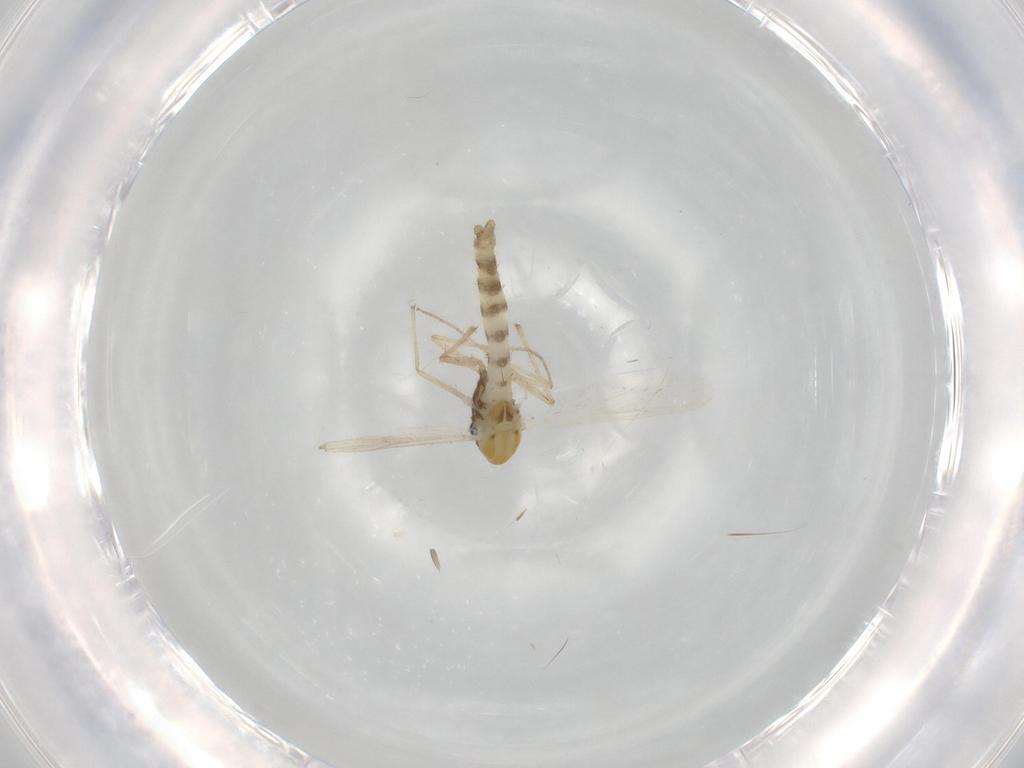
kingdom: Animalia
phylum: Arthropoda
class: Insecta
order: Diptera
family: Chironomidae
